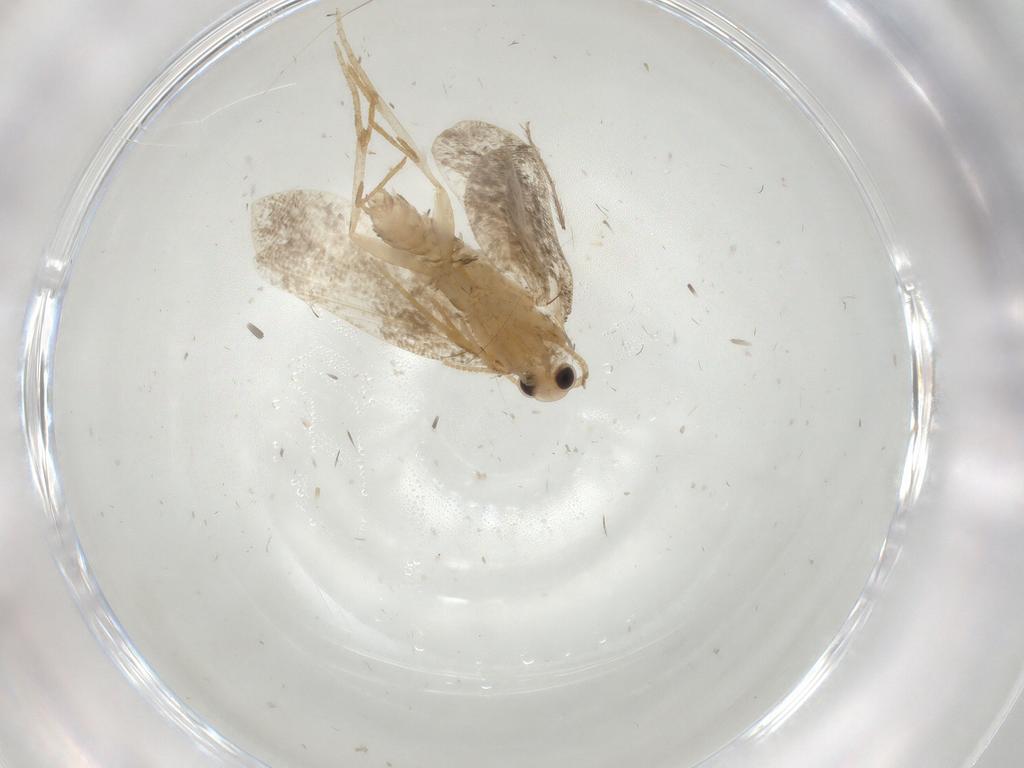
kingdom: Animalia
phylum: Arthropoda
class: Insecta
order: Lepidoptera
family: Psychidae
